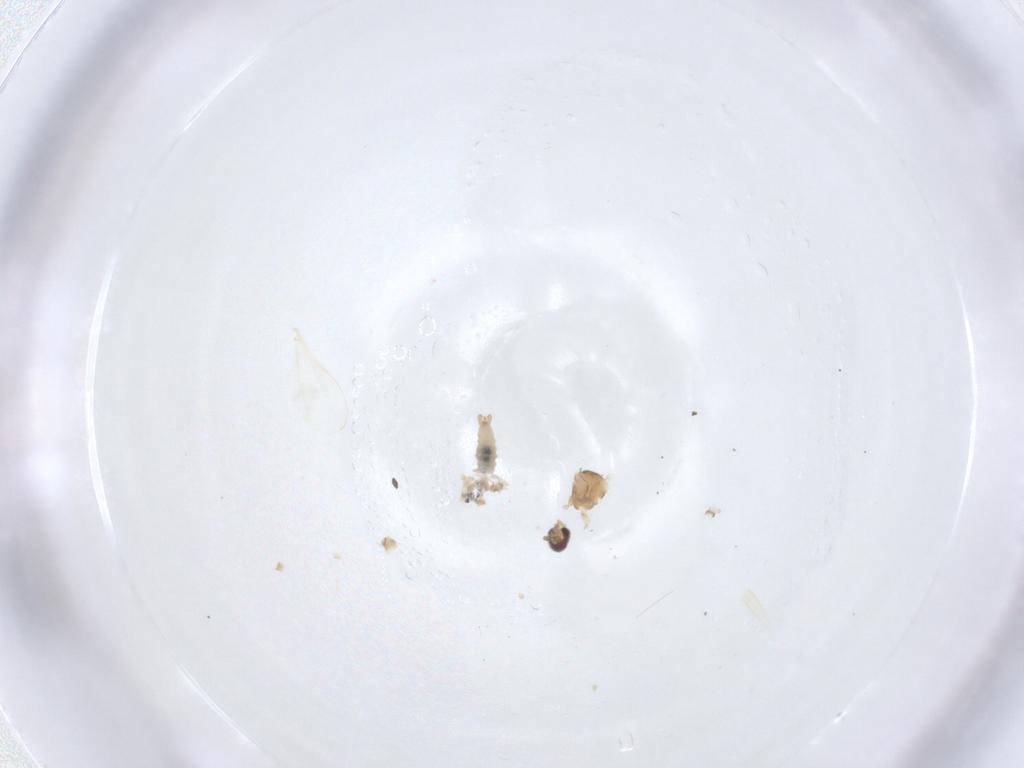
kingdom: Animalia
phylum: Arthropoda
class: Insecta
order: Diptera
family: Cecidomyiidae
